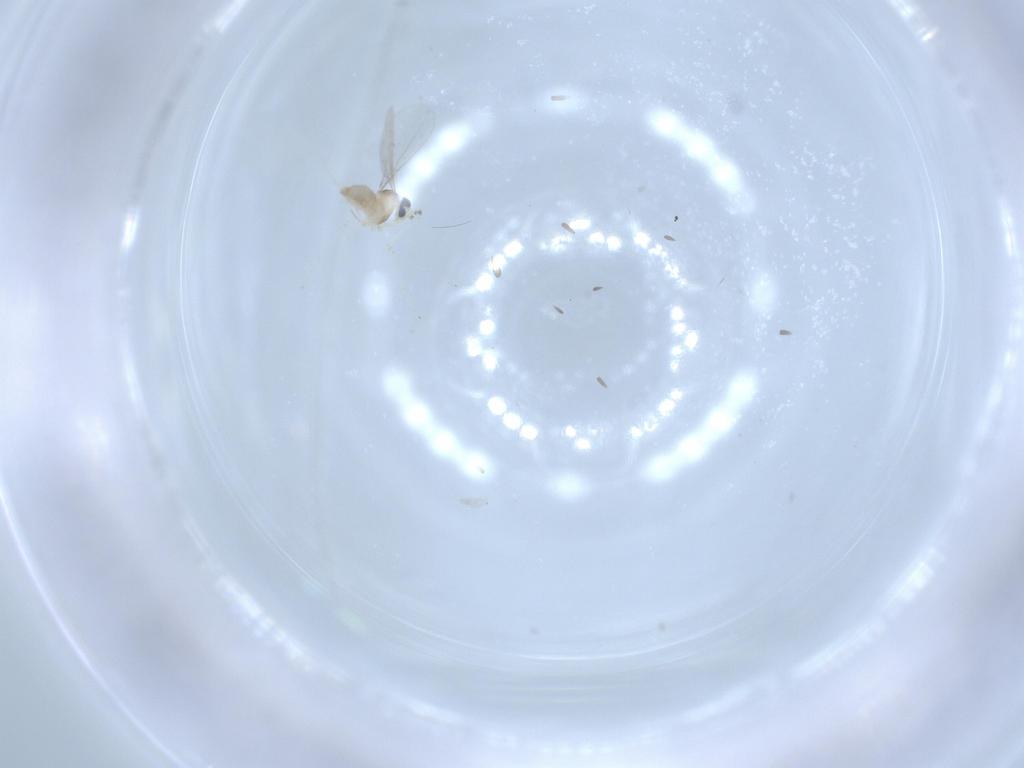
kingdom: Animalia
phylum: Arthropoda
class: Insecta
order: Diptera
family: Cecidomyiidae
